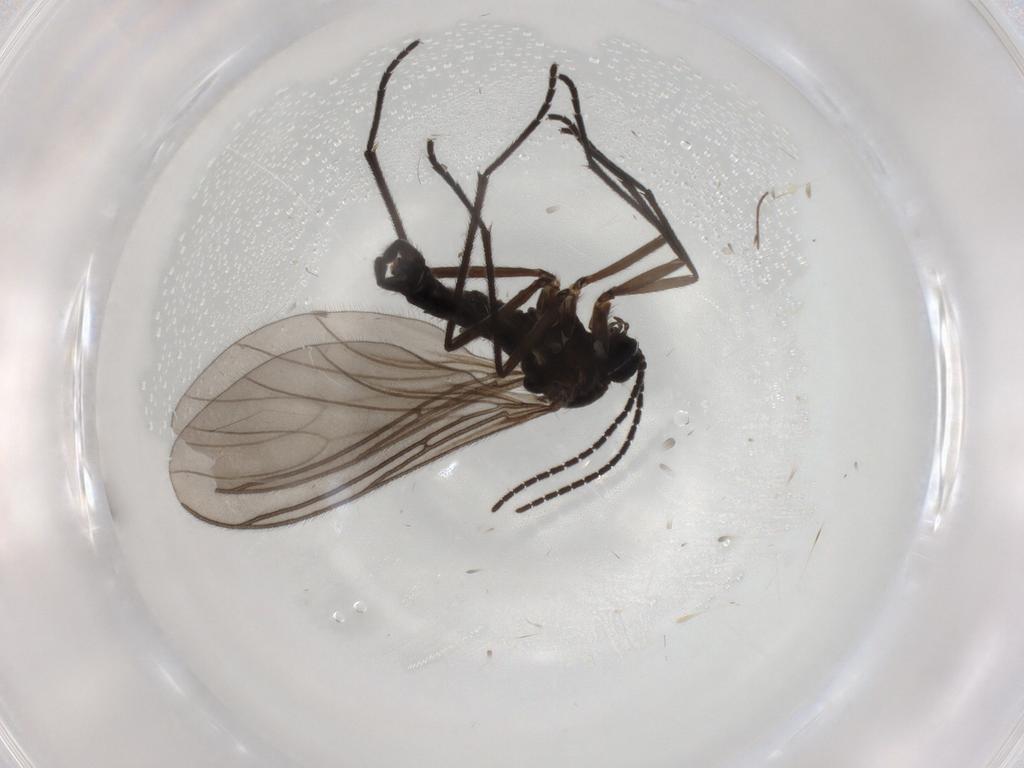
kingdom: Animalia
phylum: Arthropoda
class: Insecta
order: Diptera
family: Sciaridae
